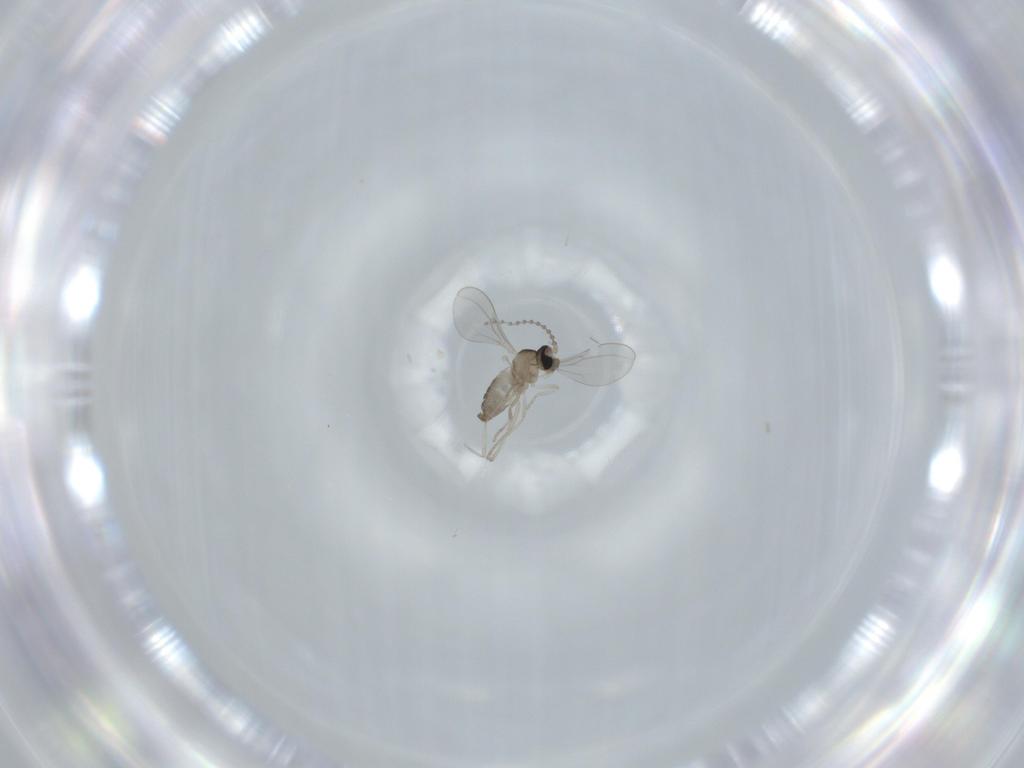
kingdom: Animalia
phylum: Arthropoda
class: Insecta
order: Diptera
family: Cecidomyiidae
